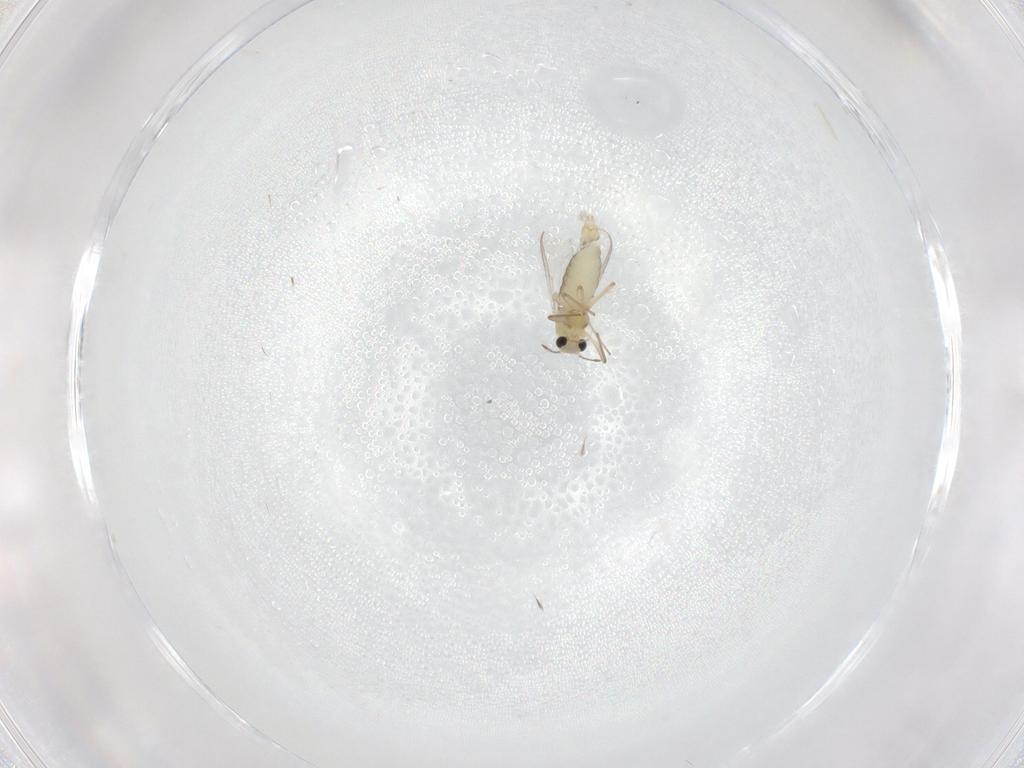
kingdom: Animalia
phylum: Arthropoda
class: Insecta
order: Diptera
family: Chironomidae
